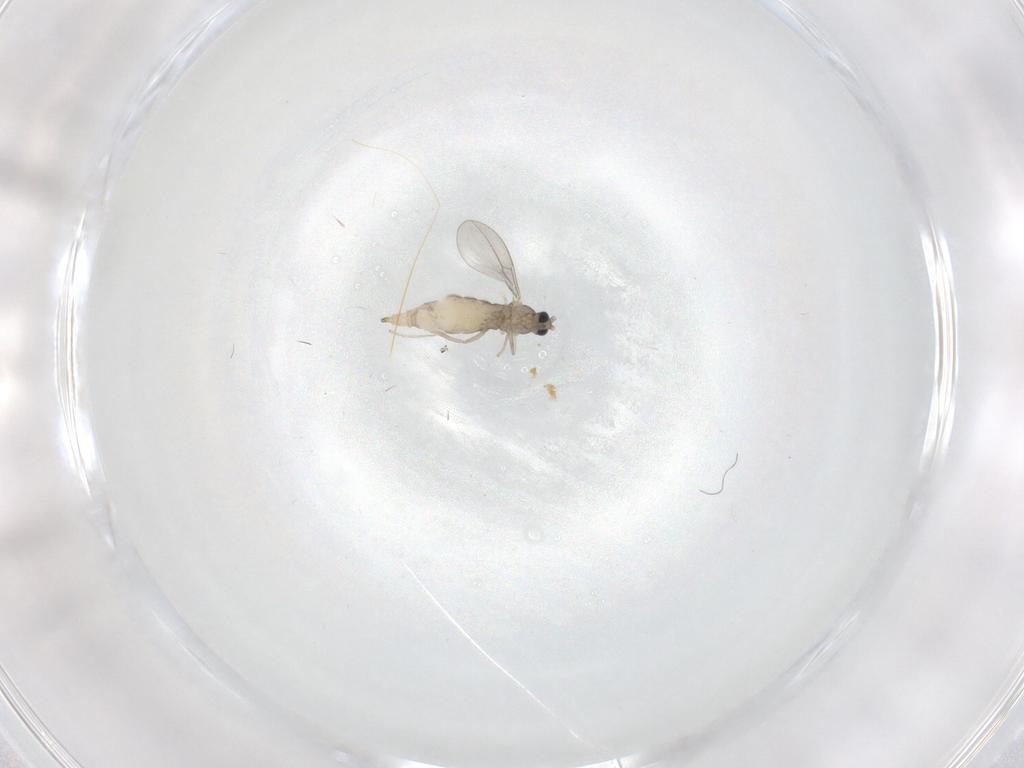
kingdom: Animalia
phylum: Arthropoda
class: Insecta
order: Diptera
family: Cecidomyiidae
